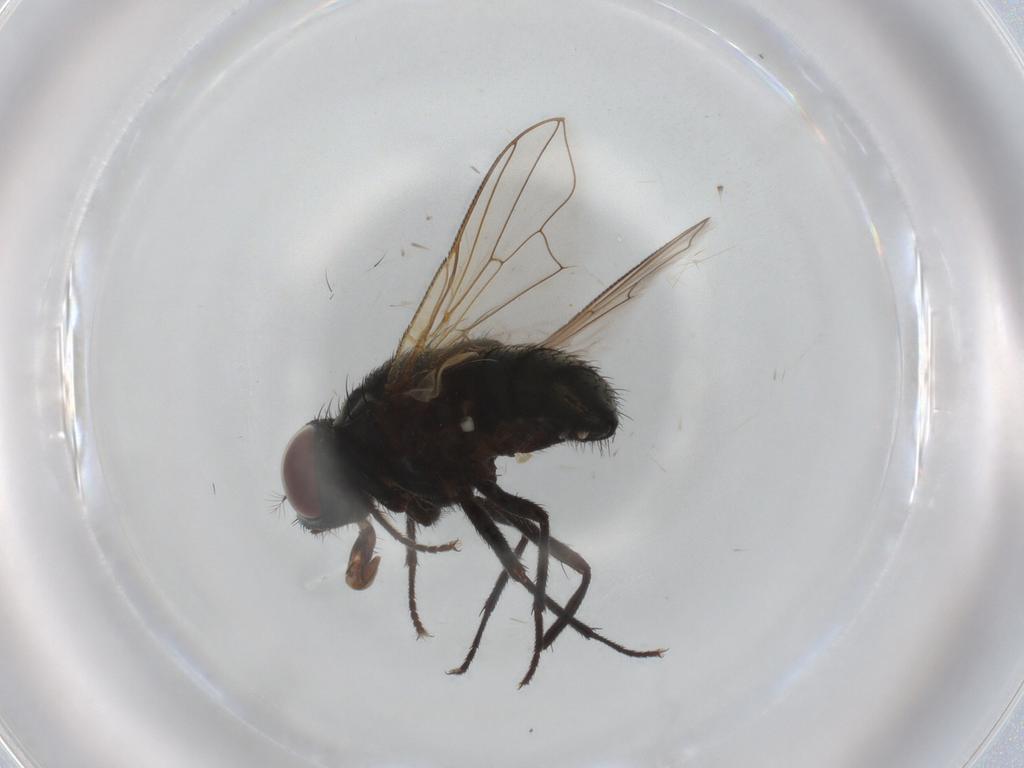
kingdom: Animalia
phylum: Arthropoda
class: Insecta
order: Diptera
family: Muscidae
